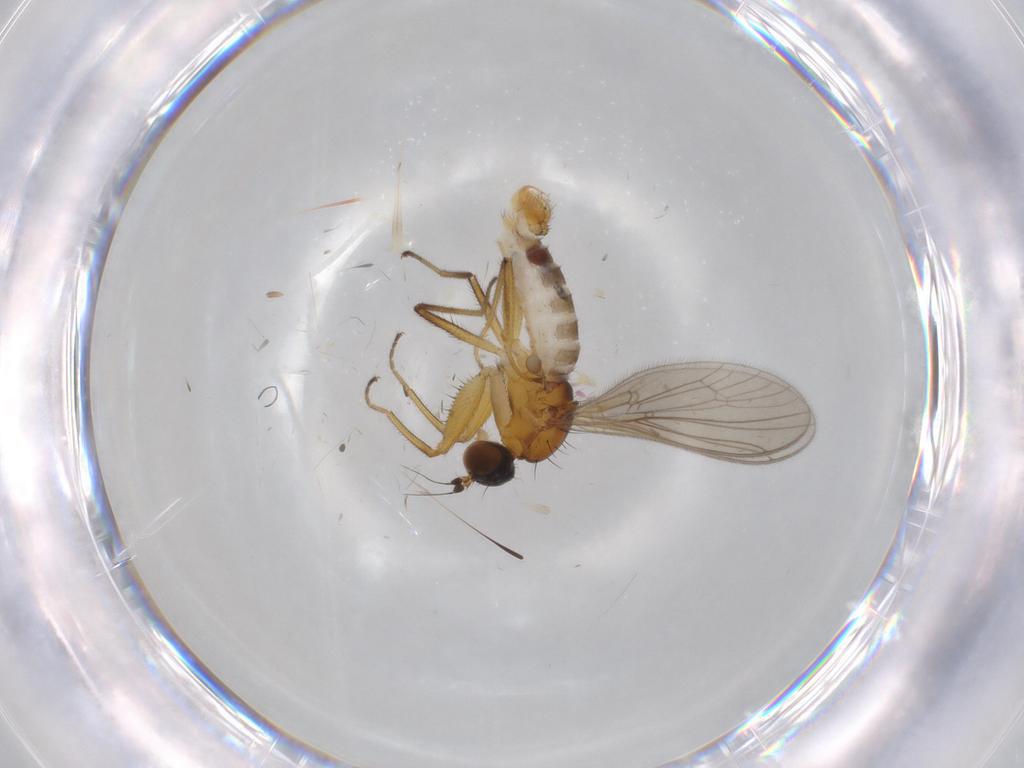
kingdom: Animalia
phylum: Arthropoda
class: Insecta
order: Diptera
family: Empididae
